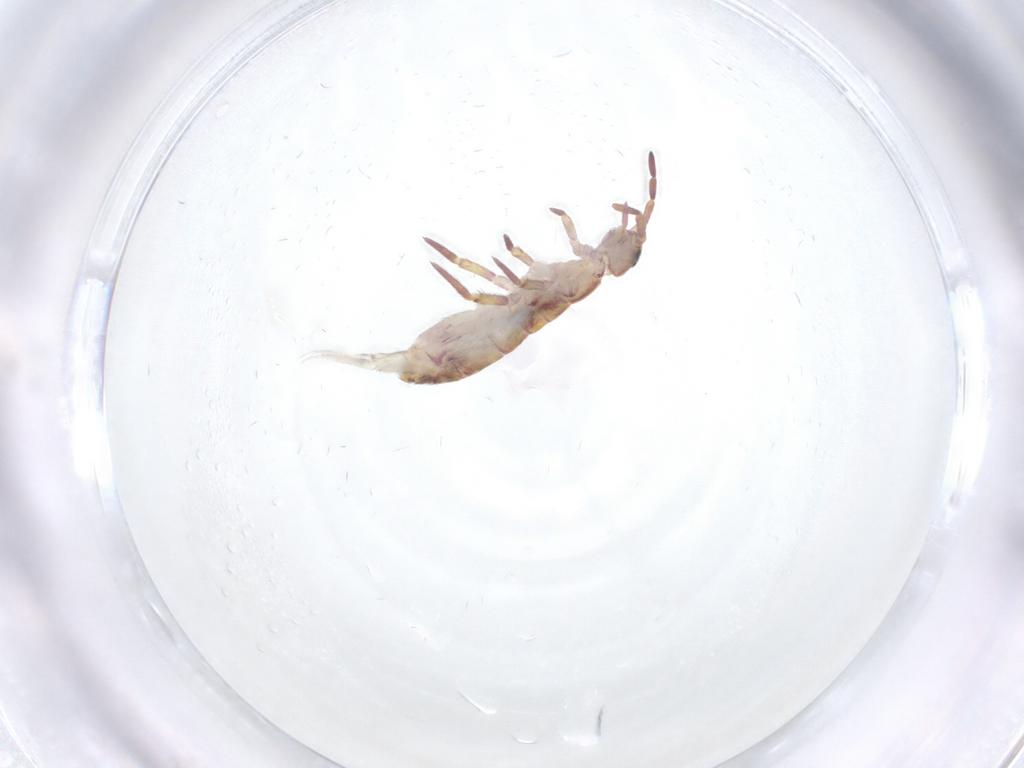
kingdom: Animalia
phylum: Arthropoda
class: Collembola
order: Entomobryomorpha
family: Isotomidae
